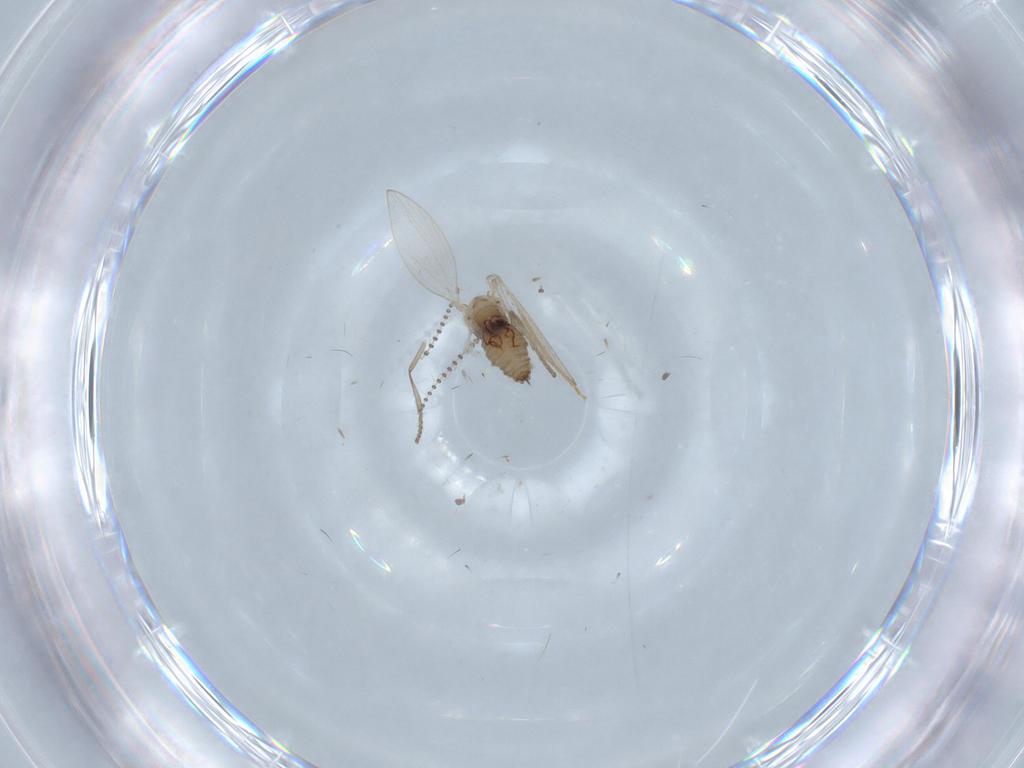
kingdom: Animalia
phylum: Arthropoda
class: Insecta
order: Diptera
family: Psychodidae
